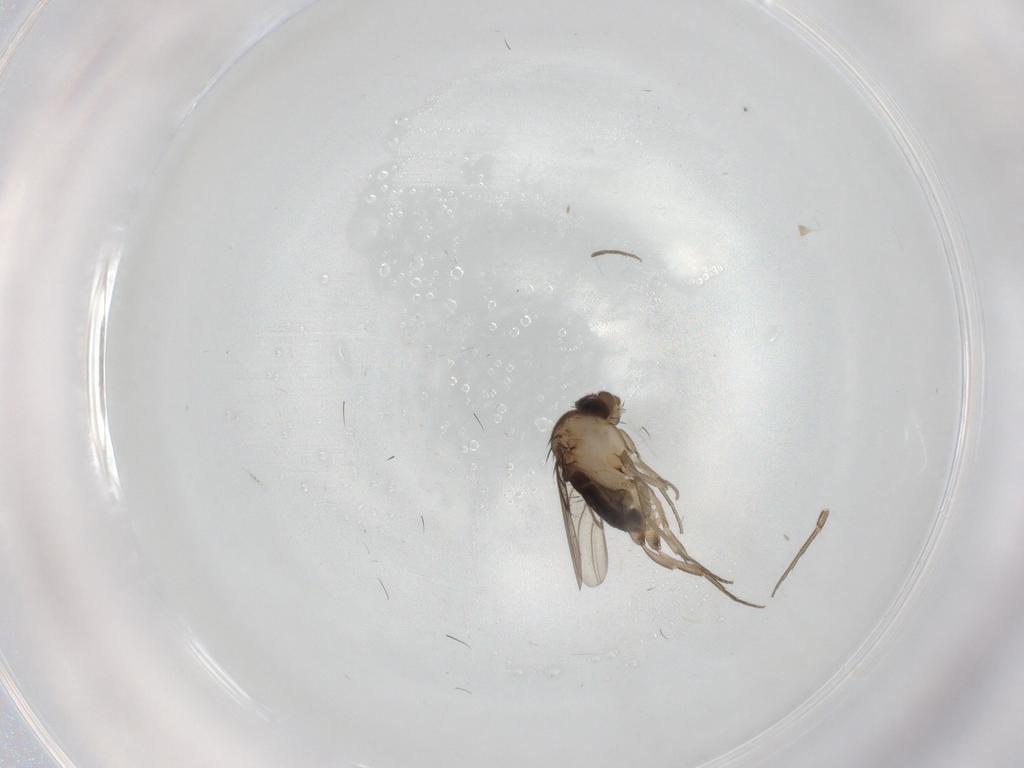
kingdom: Animalia
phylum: Arthropoda
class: Insecta
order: Diptera
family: Phoridae
